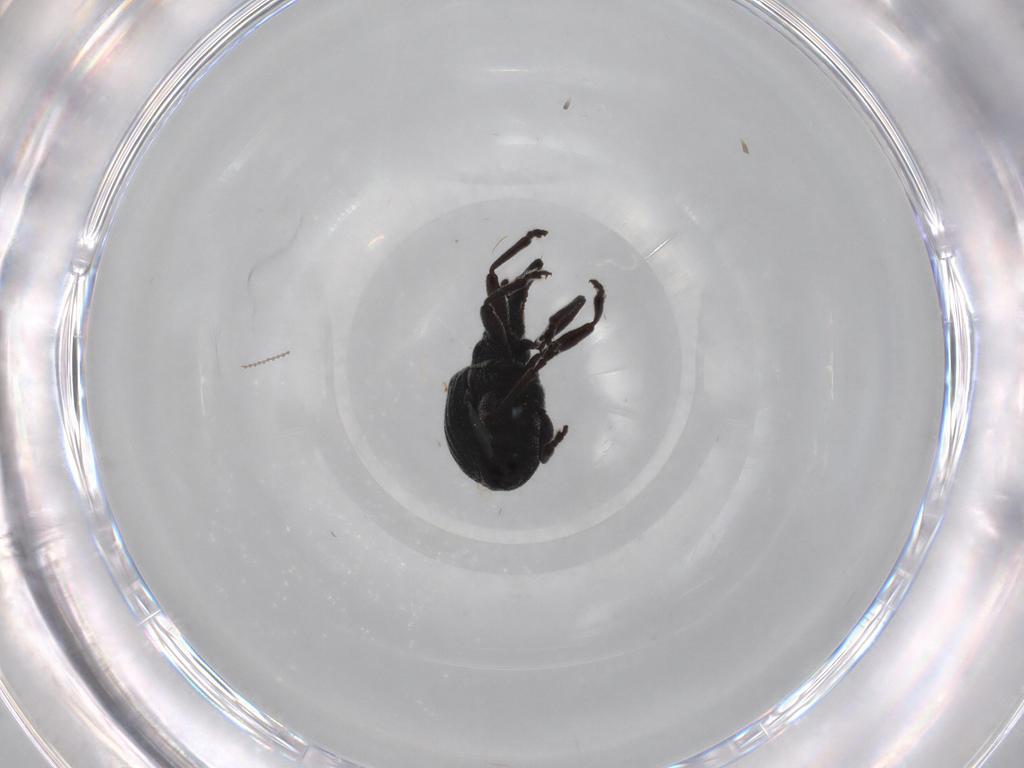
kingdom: Animalia
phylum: Arthropoda
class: Insecta
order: Coleoptera
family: Brentidae
